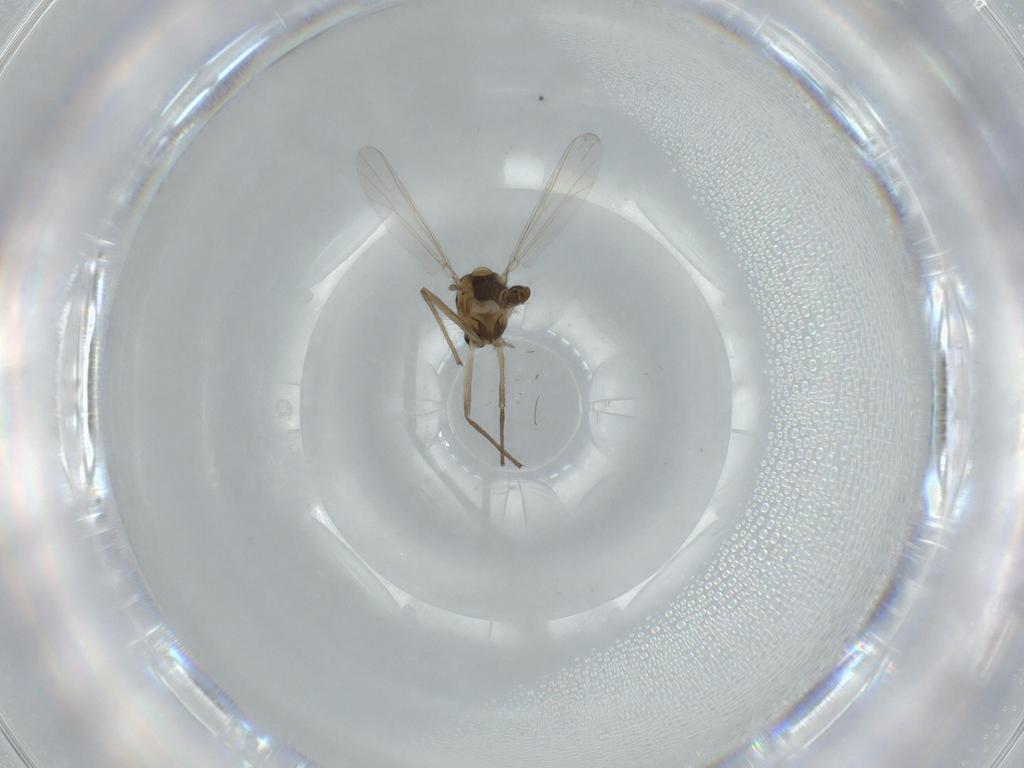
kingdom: Animalia
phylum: Arthropoda
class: Insecta
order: Diptera
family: Chironomidae
